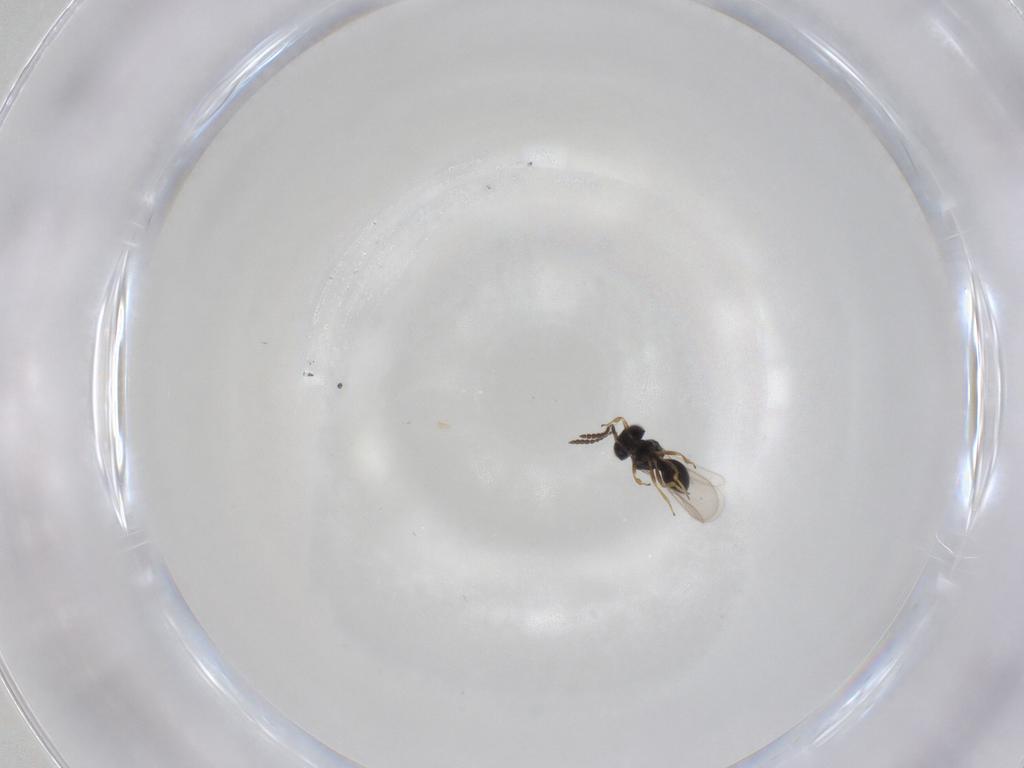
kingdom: Animalia
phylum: Arthropoda
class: Insecta
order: Hymenoptera
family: Scelionidae
